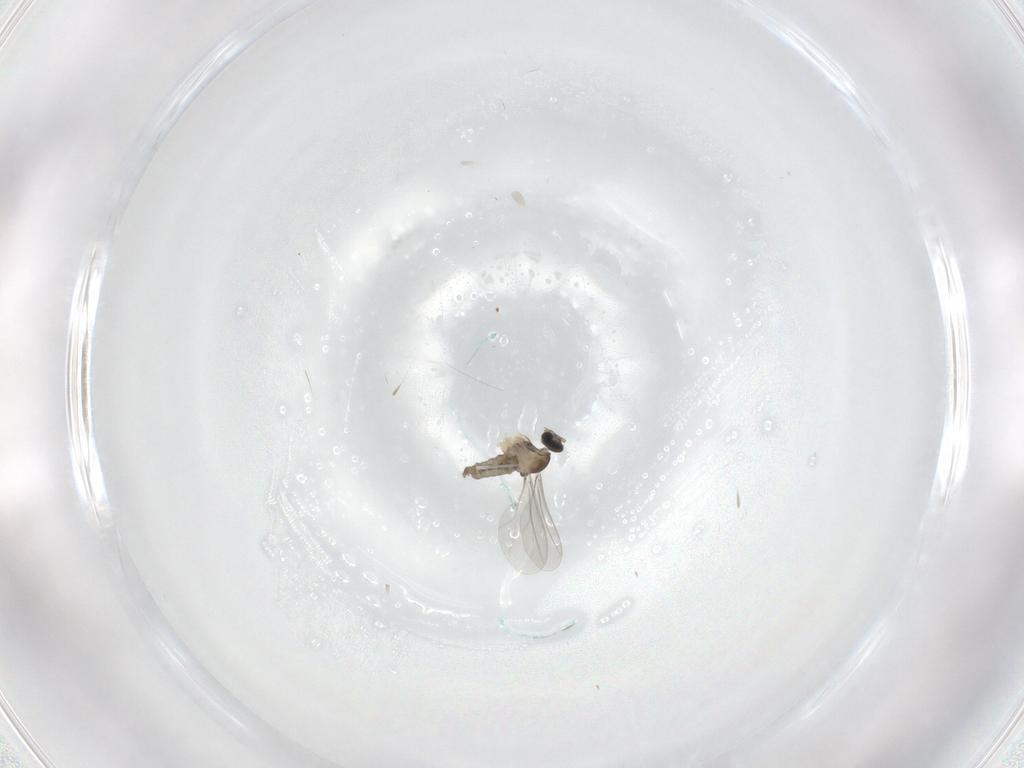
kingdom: Animalia
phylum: Arthropoda
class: Insecta
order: Diptera
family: Cecidomyiidae
